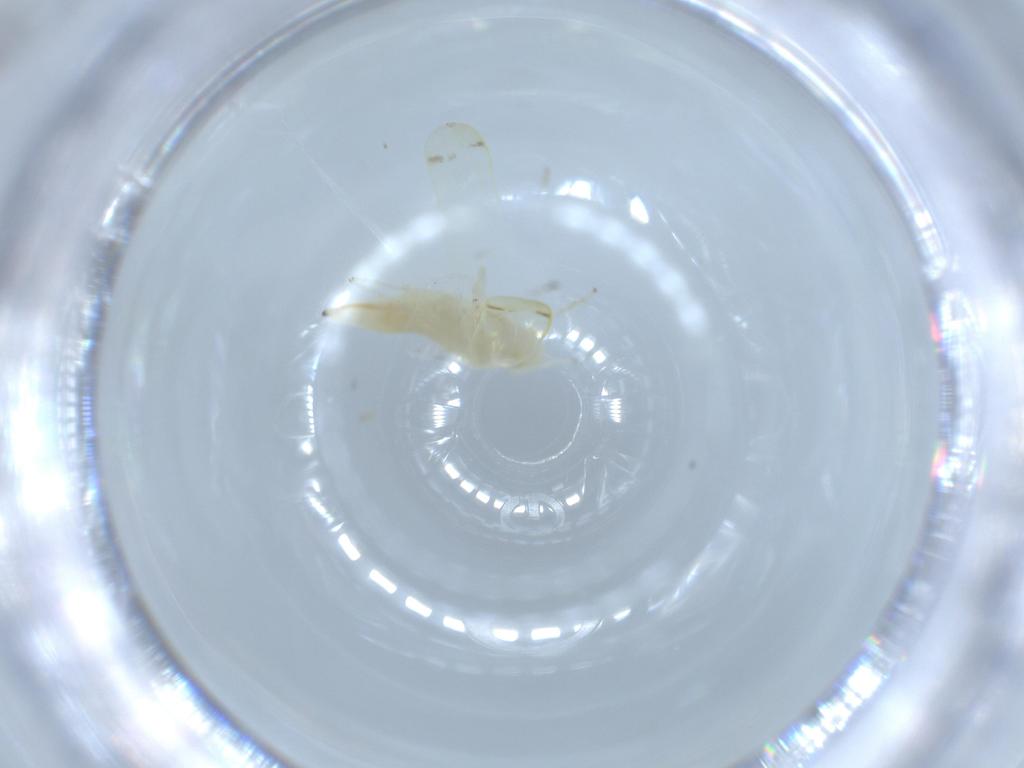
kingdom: Animalia
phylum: Arthropoda
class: Insecta
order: Hemiptera
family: Cicadellidae
